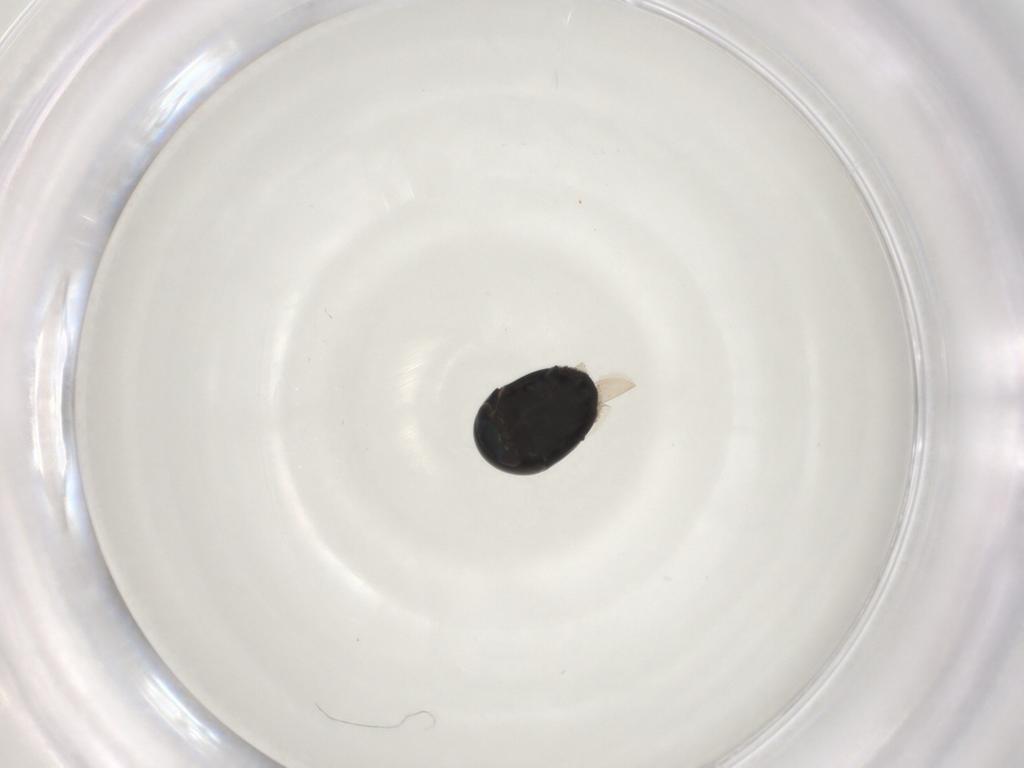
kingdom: Animalia
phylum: Arthropoda
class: Insecta
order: Coleoptera
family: Cybocephalidae
